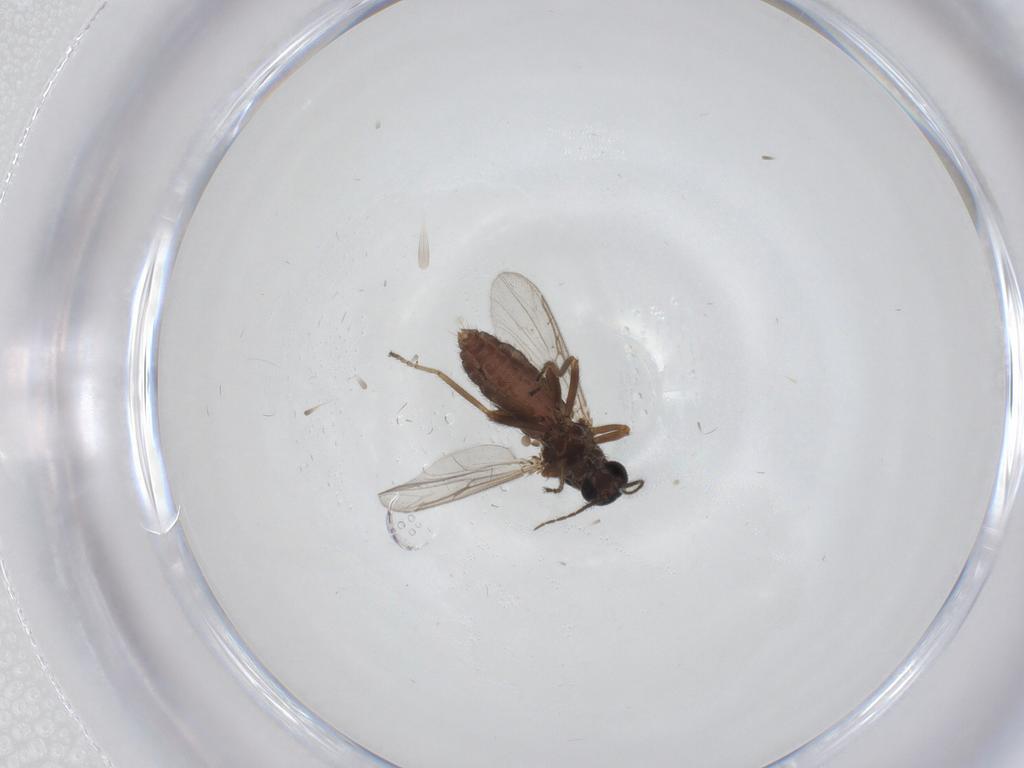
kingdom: Animalia
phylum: Arthropoda
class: Insecta
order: Diptera
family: Ceratopogonidae
